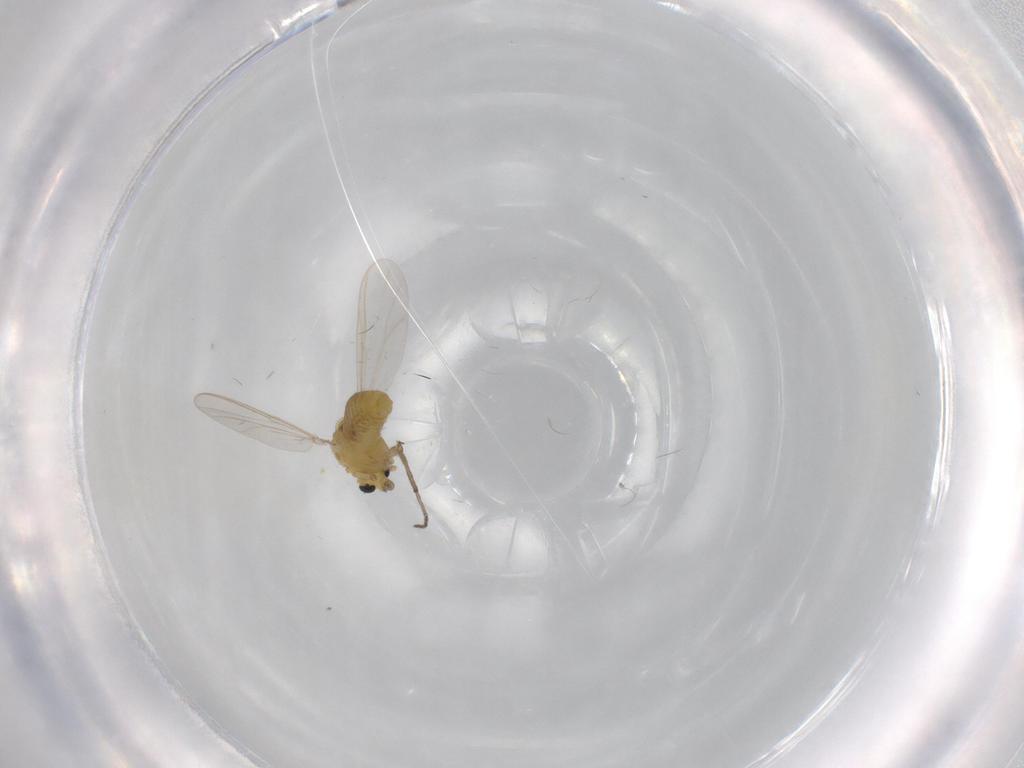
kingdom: Animalia
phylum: Arthropoda
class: Insecta
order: Diptera
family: Chironomidae
